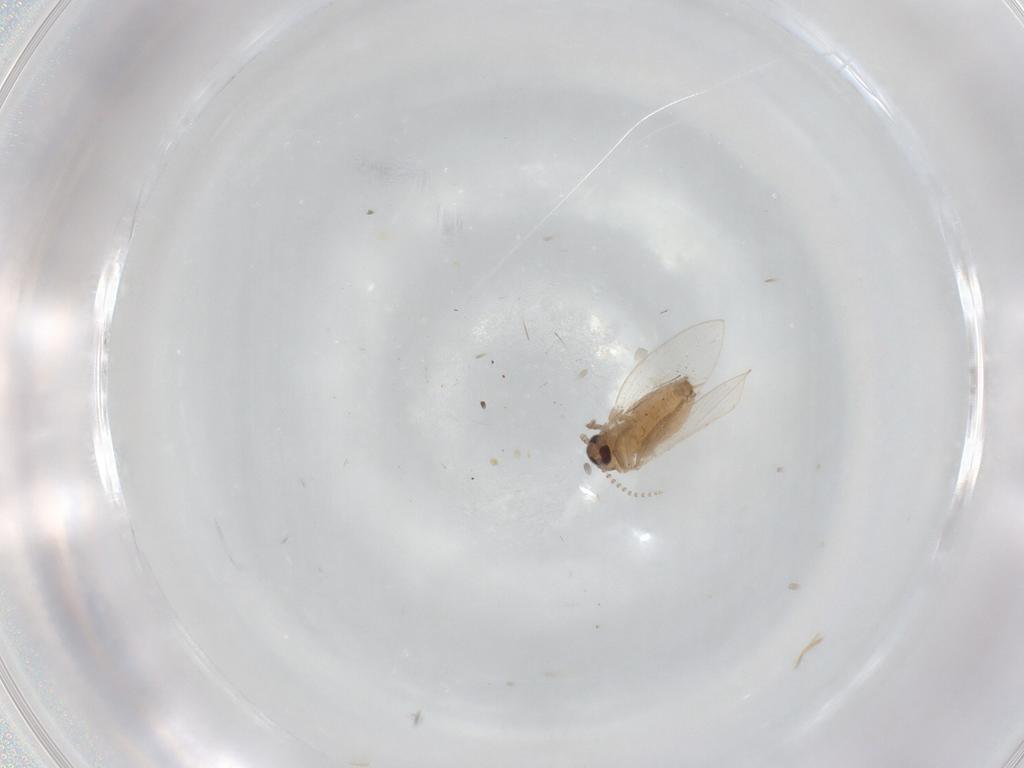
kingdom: Animalia
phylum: Arthropoda
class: Insecta
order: Diptera
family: Psychodidae
